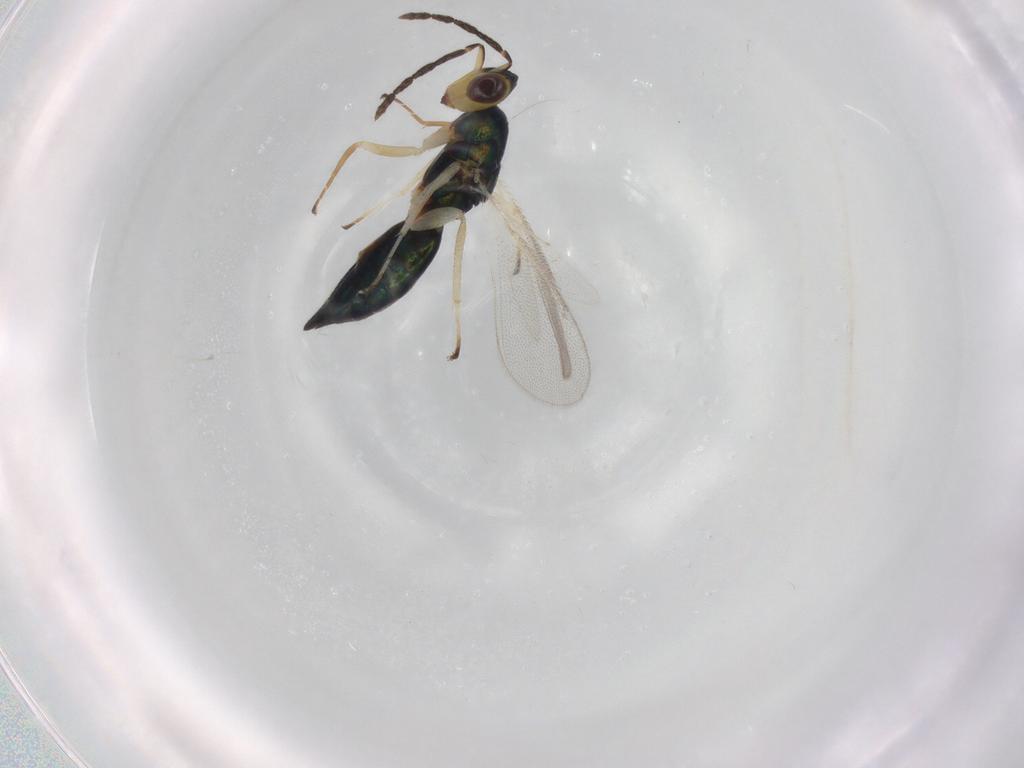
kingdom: Animalia
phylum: Arthropoda
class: Insecta
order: Hymenoptera
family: Eulophidae
